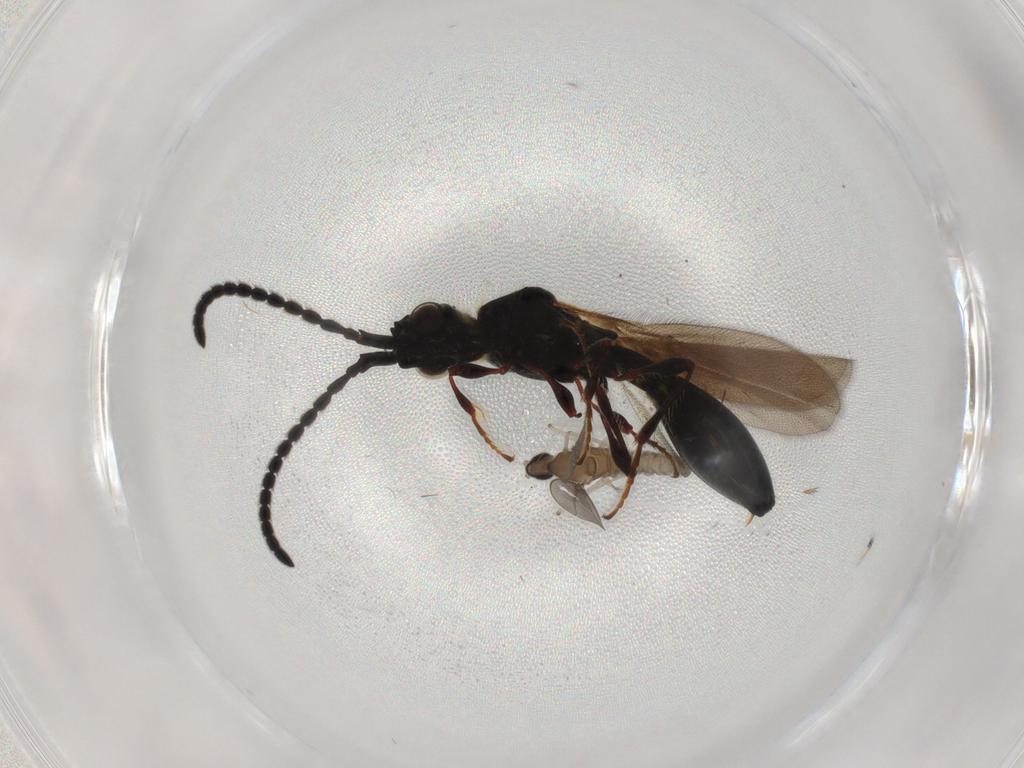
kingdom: Animalia
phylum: Arthropoda
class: Insecta
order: Diptera
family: Cecidomyiidae
